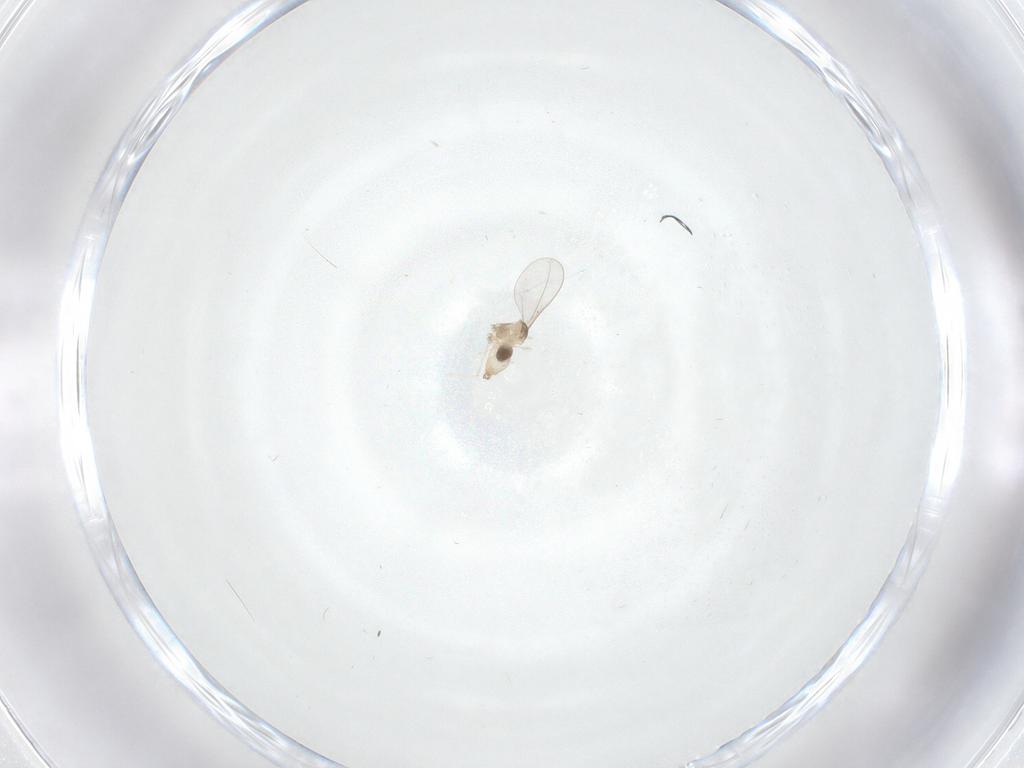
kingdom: Animalia
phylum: Arthropoda
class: Insecta
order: Diptera
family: Cecidomyiidae
